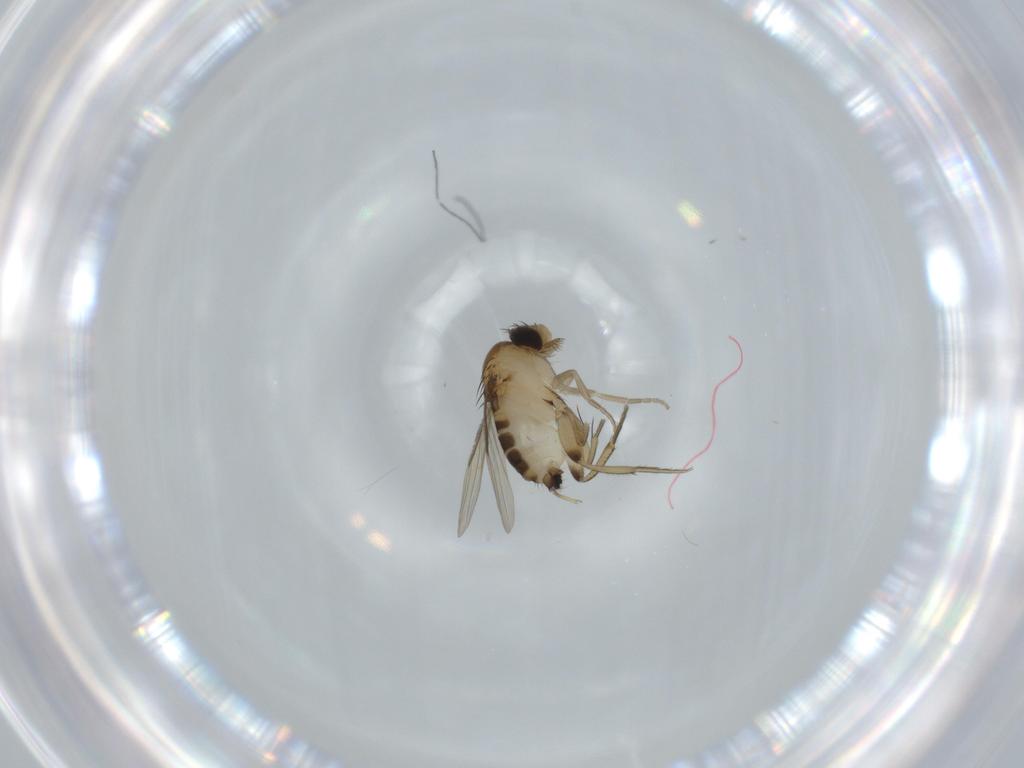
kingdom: Animalia
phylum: Arthropoda
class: Insecta
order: Diptera
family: Phoridae
